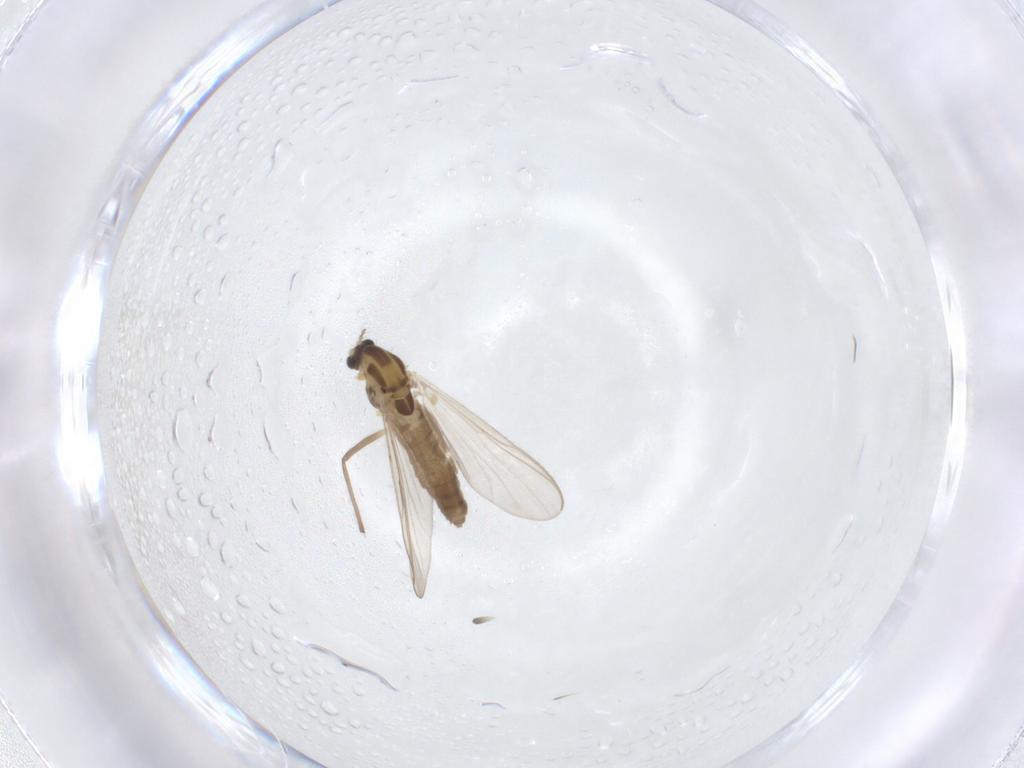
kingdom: Animalia
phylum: Arthropoda
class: Insecta
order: Diptera
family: Chironomidae
